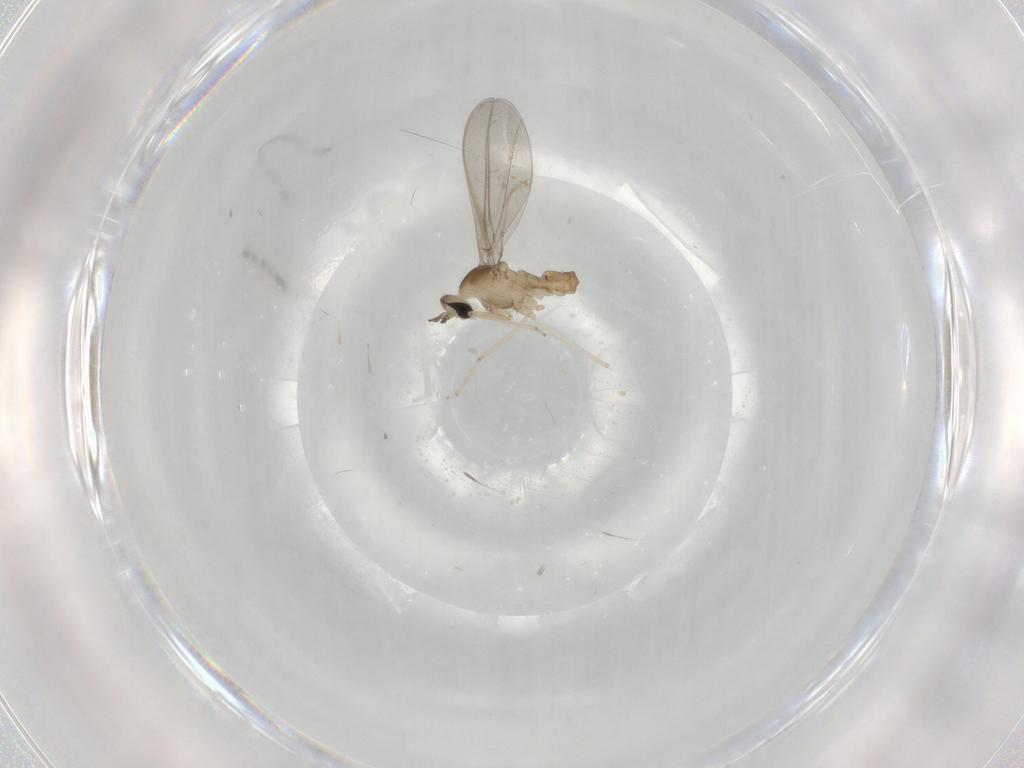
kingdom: Animalia
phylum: Arthropoda
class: Insecta
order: Diptera
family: Cecidomyiidae
